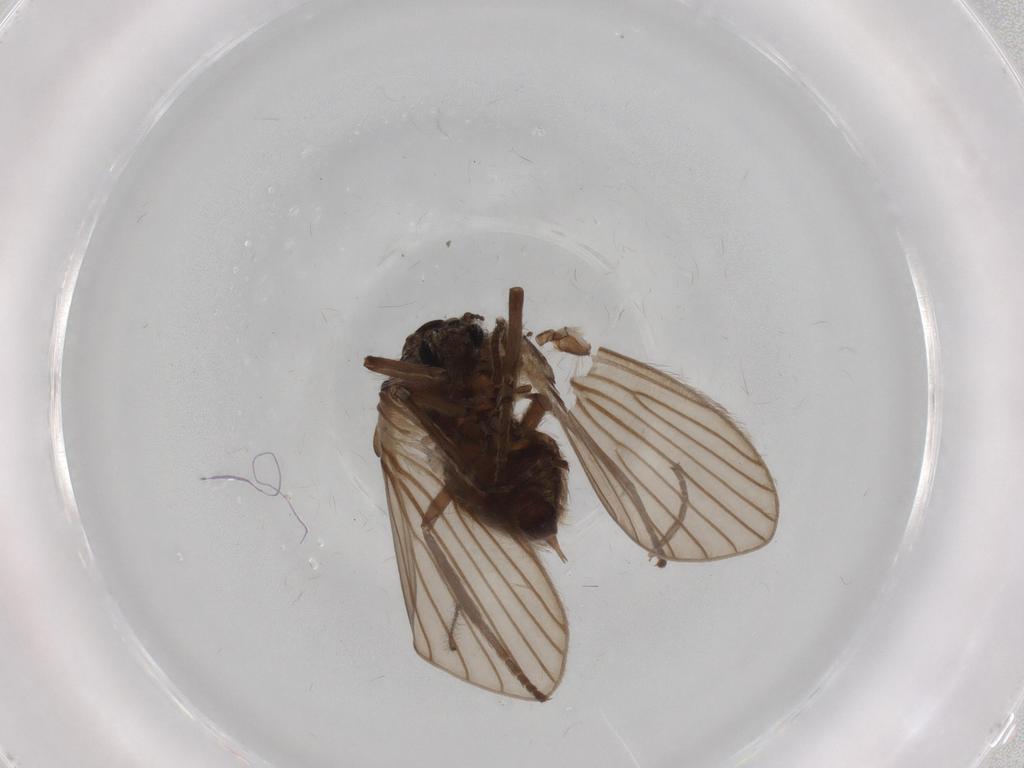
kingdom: Animalia
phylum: Arthropoda
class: Insecta
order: Diptera
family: Psychodidae
